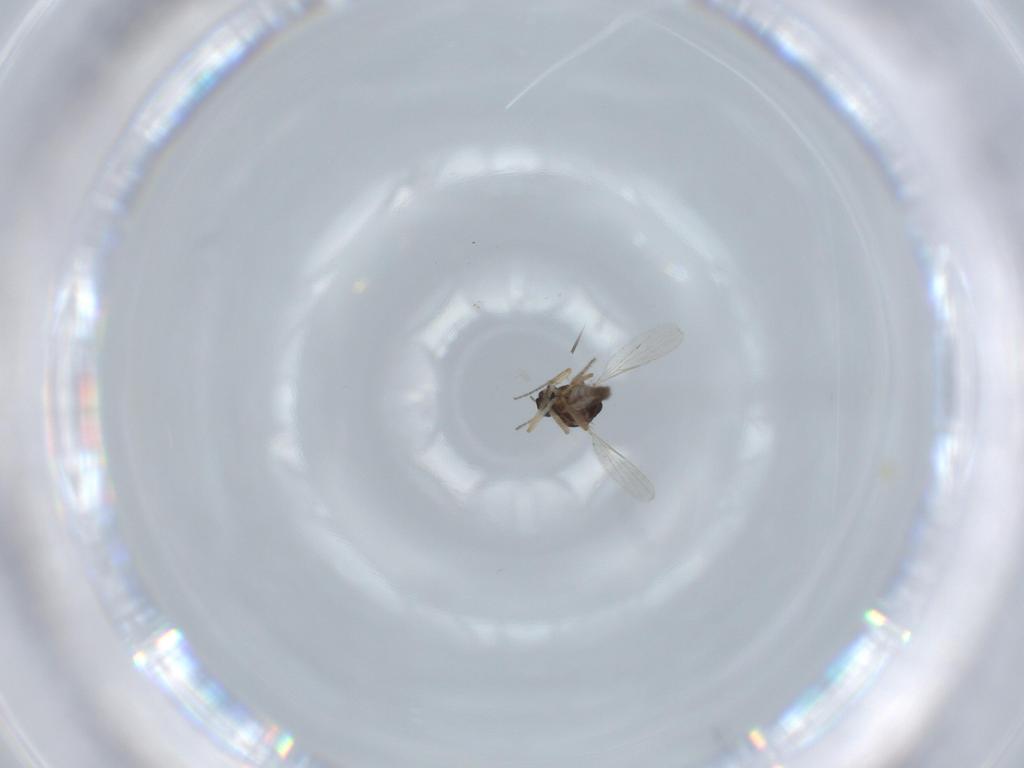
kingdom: Animalia
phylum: Arthropoda
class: Insecta
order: Diptera
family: Ceratopogonidae
